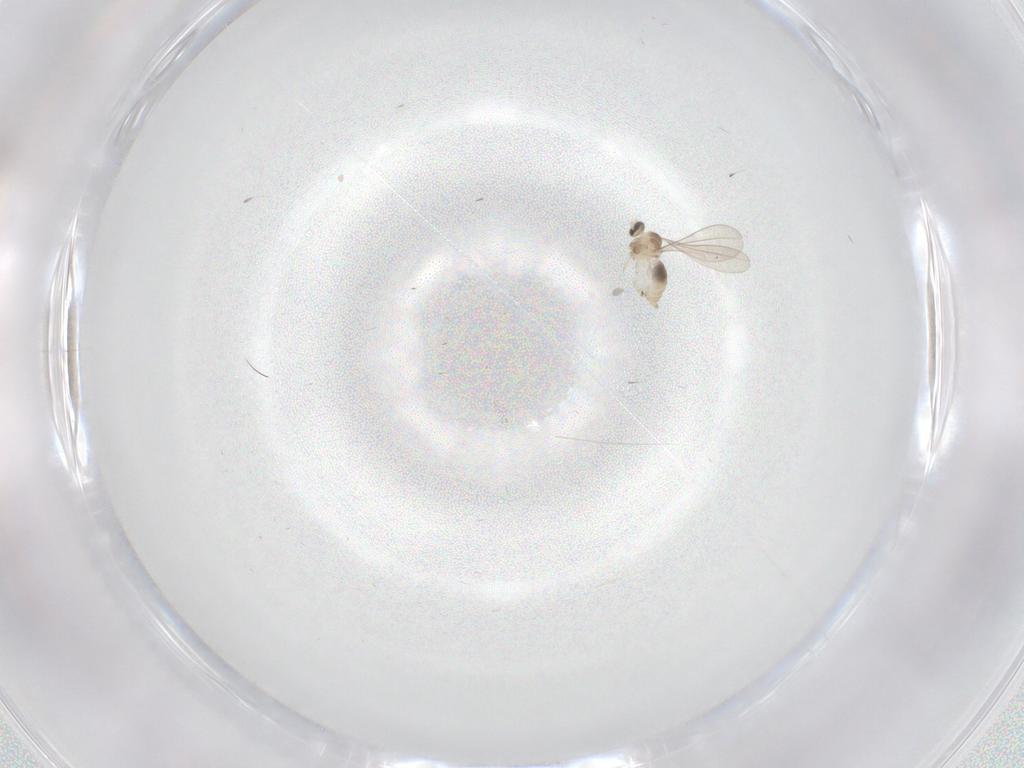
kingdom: Animalia
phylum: Arthropoda
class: Insecta
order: Diptera
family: Cecidomyiidae
